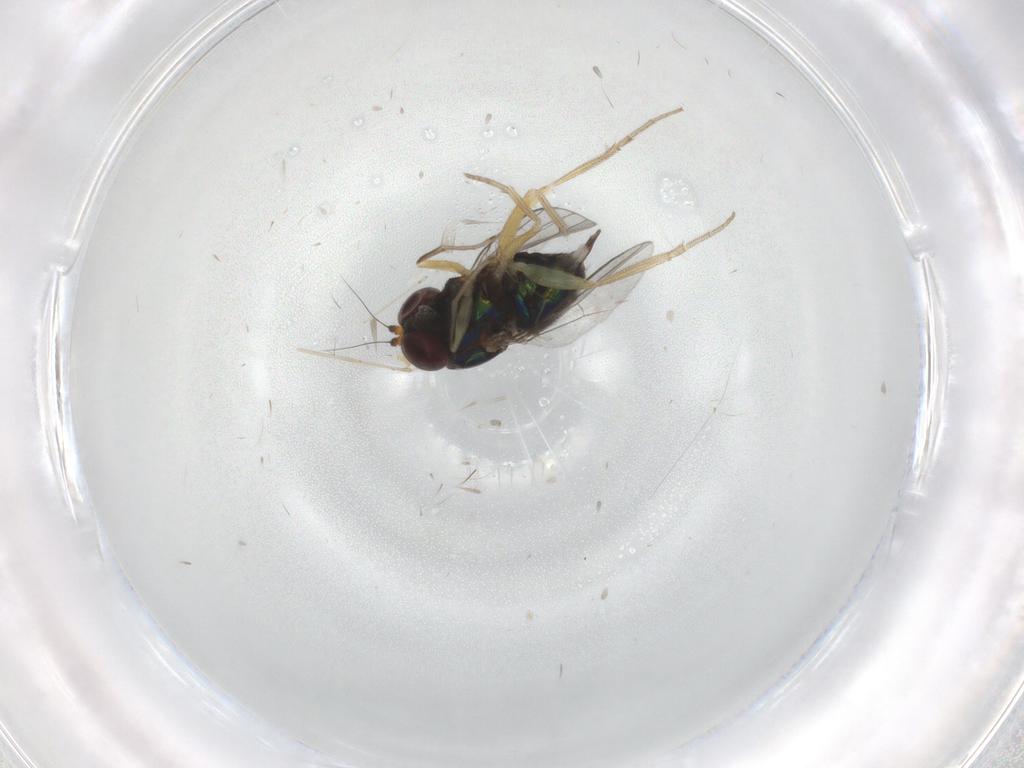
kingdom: Animalia
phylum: Arthropoda
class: Insecta
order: Diptera
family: Dolichopodidae
